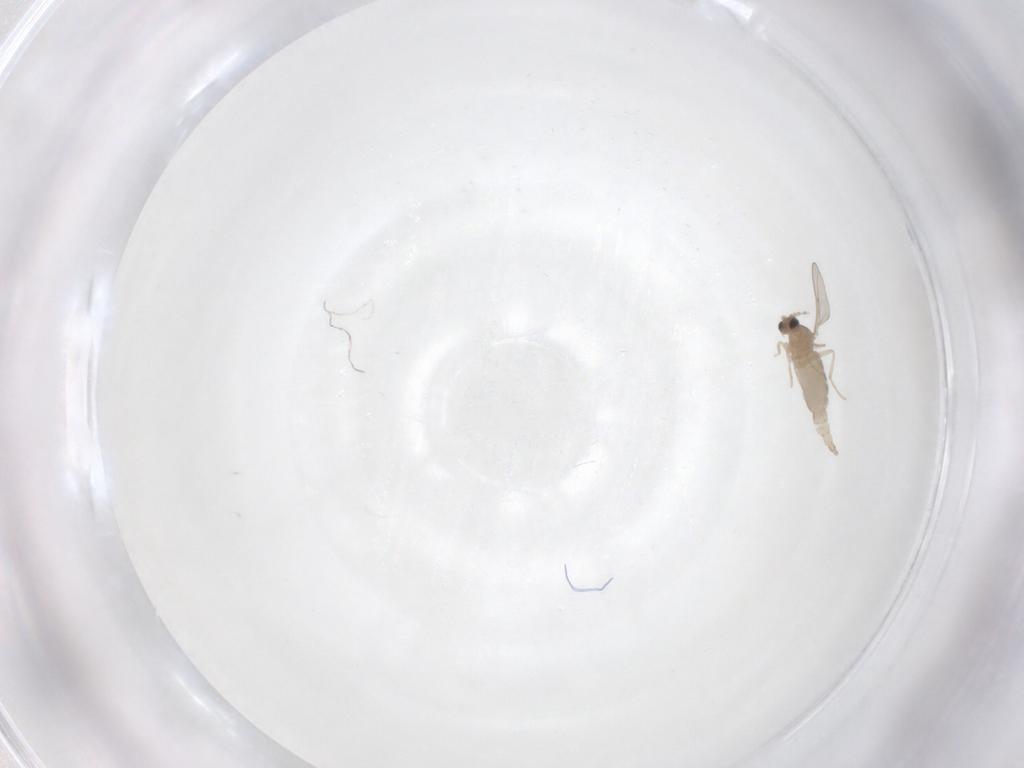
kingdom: Animalia
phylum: Arthropoda
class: Insecta
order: Diptera
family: Cecidomyiidae
